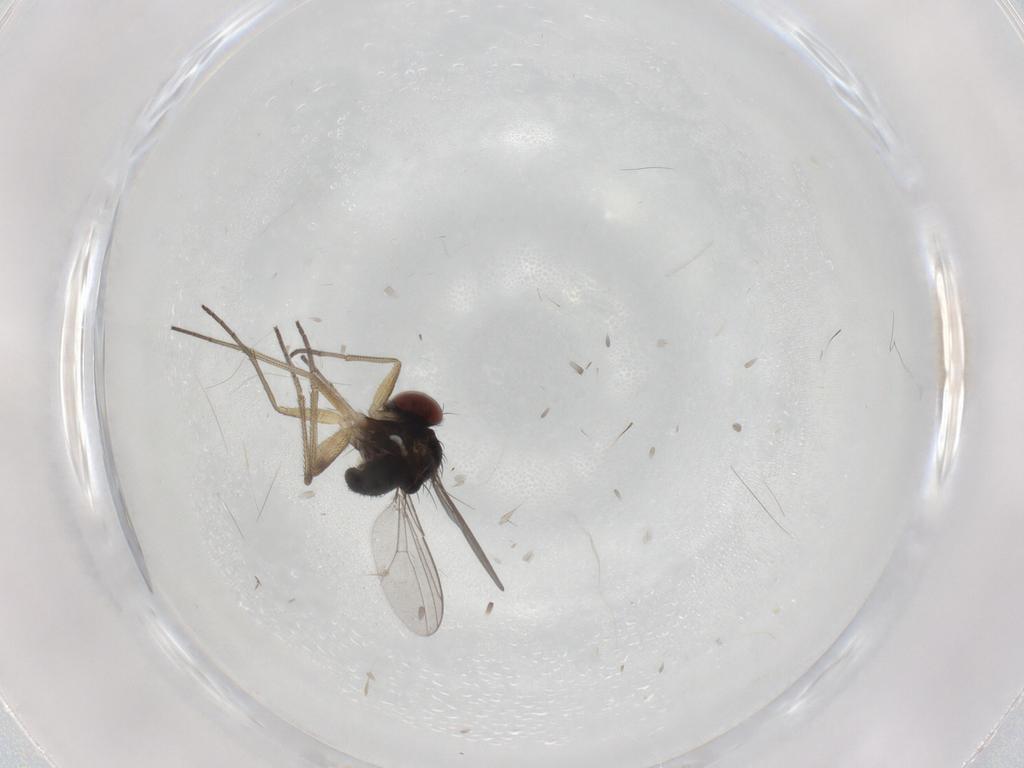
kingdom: Animalia
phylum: Arthropoda
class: Insecta
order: Diptera
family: Dolichopodidae
